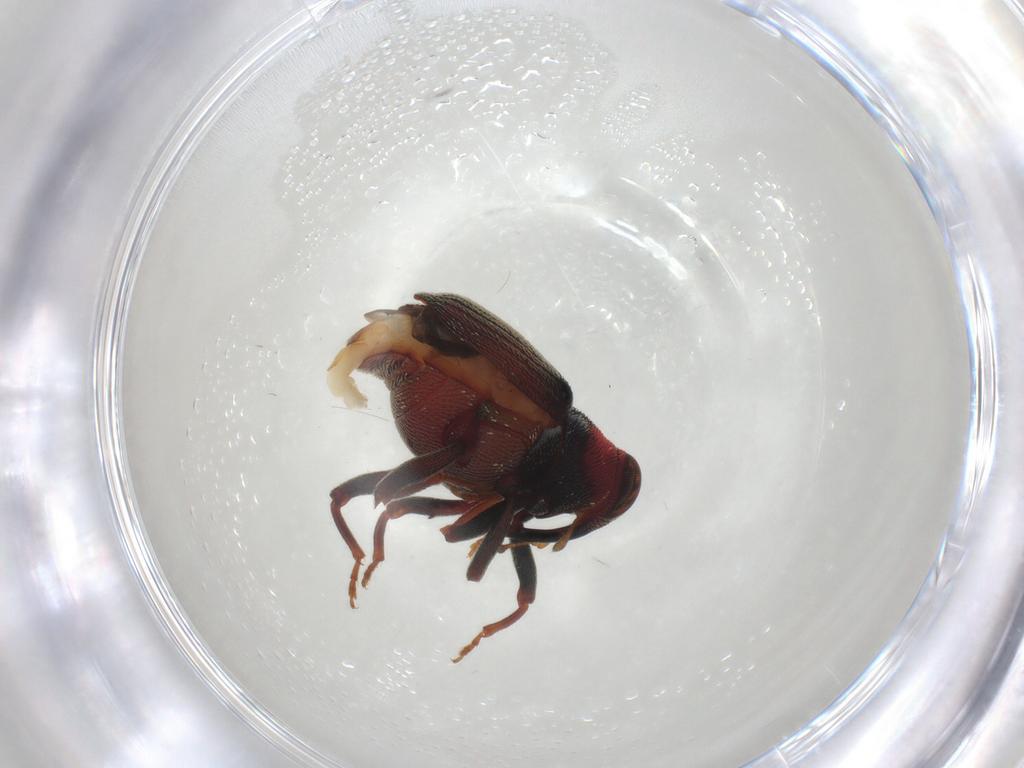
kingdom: Animalia
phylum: Arthropoda
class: Insecta
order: Coleoptera
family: Curculionidae
